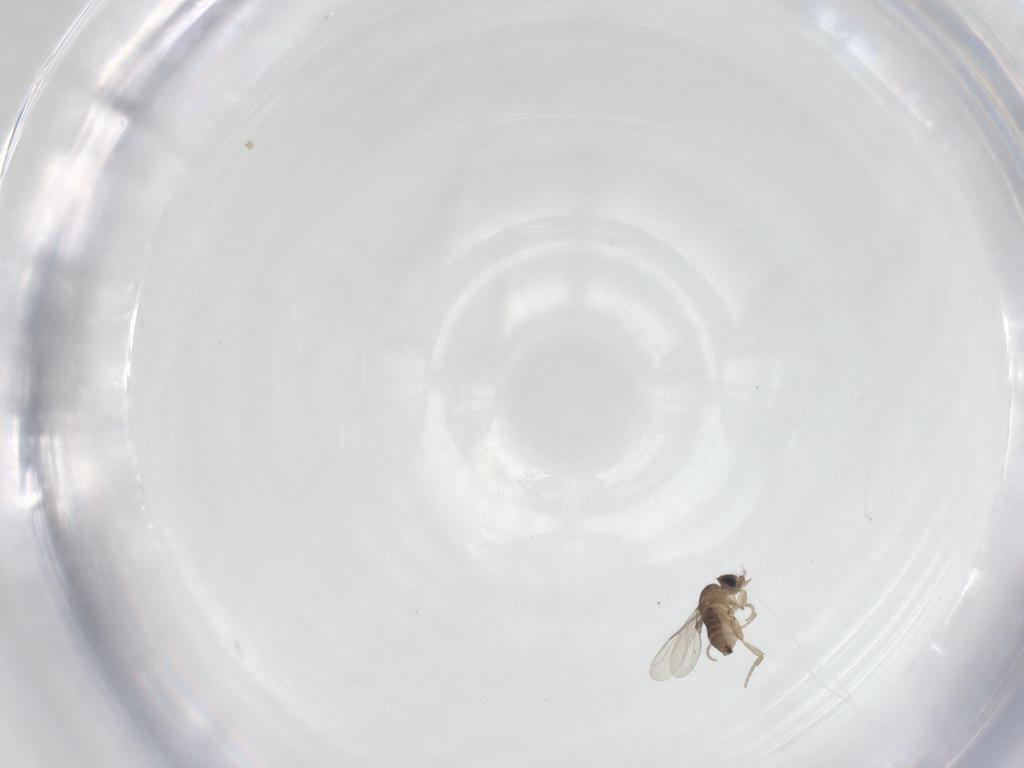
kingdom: Animalia
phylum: Arthropoda
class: Insecta
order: Diptera
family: Phoridae
